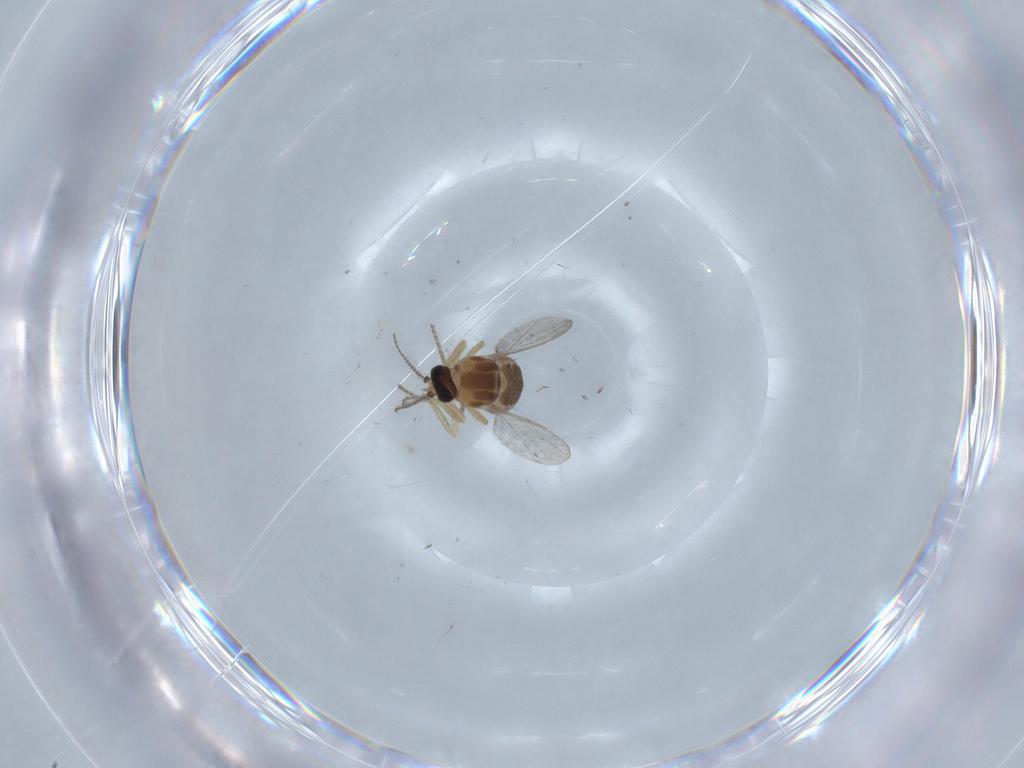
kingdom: Animalia
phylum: Arthropoda
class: Insecta
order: Diptera
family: Ceratopogonidae
